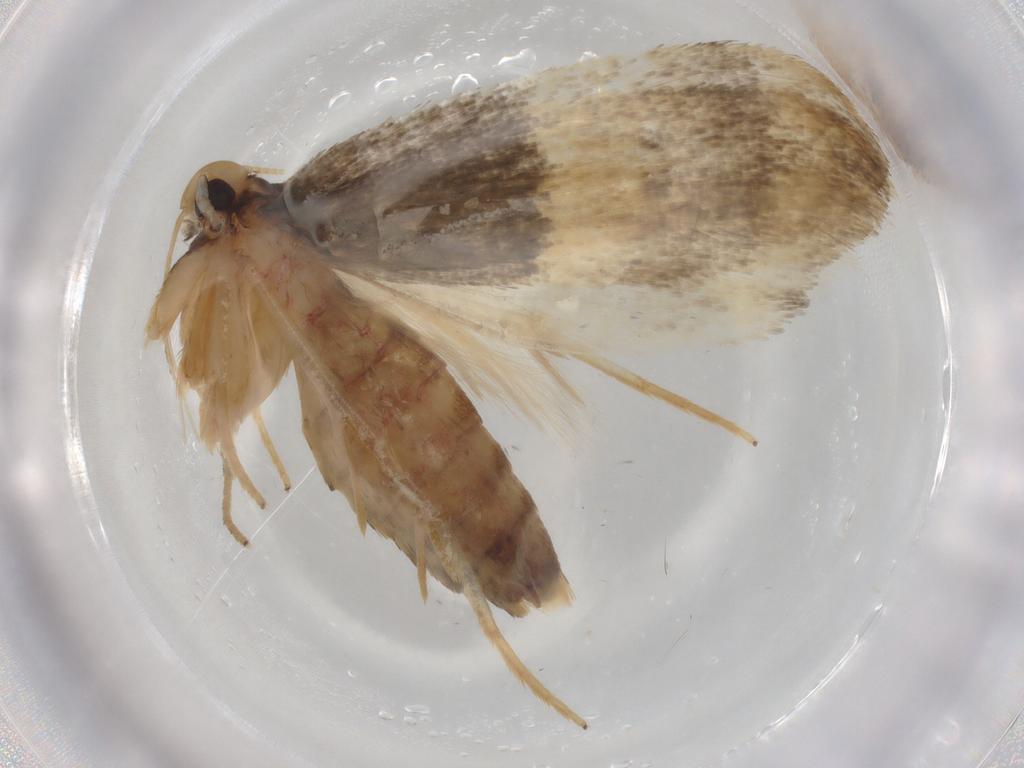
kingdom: Animalia
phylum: Arthropoda
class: Insecta
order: Lepidoptera
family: Lecithoceridae
